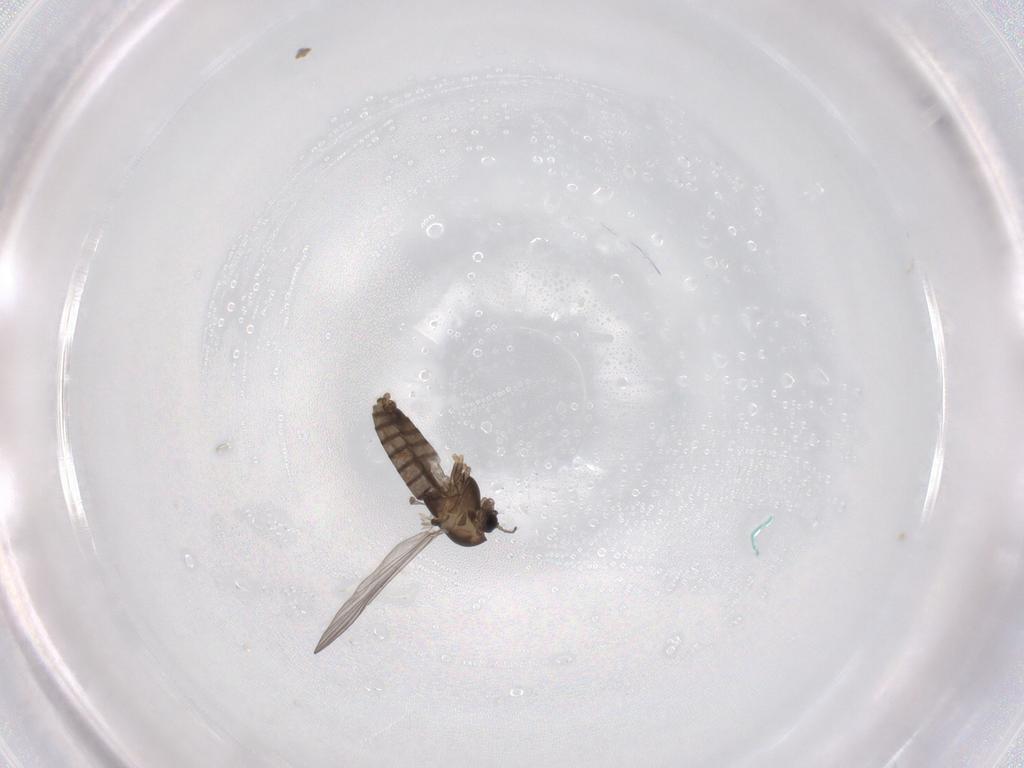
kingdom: Animalia
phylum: Arthropoda
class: Insecta
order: Diptera
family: Chironomidae
